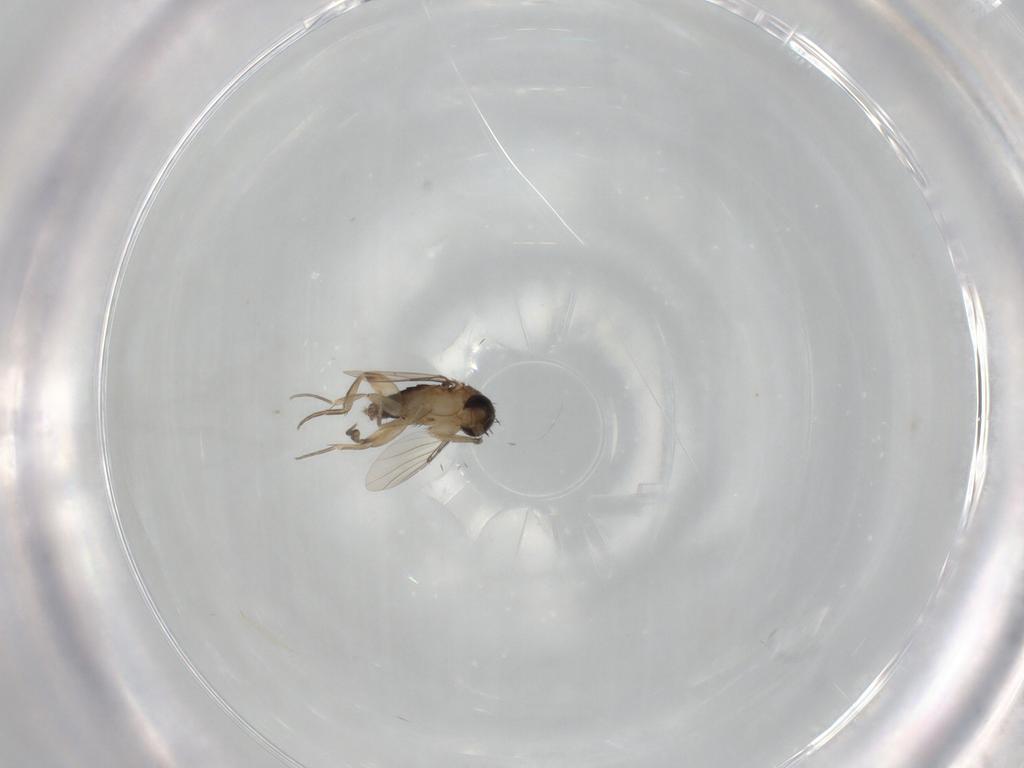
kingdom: Animalia
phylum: Arthropoda
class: Insecta
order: Diptera
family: Phoridae
